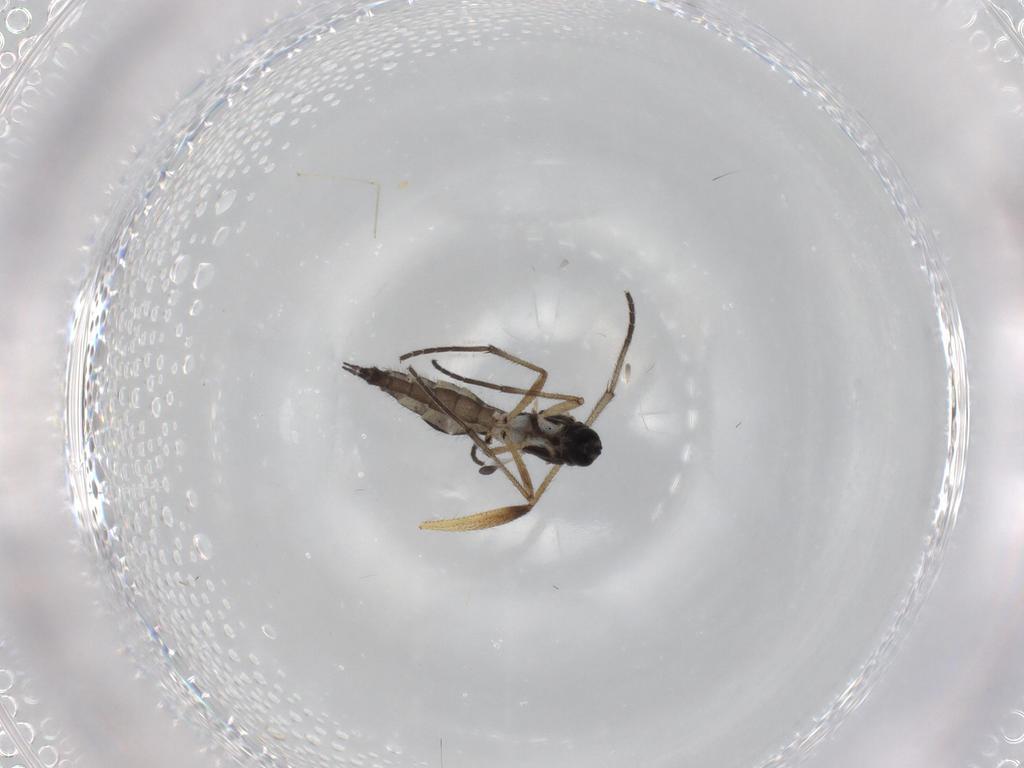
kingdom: Animalia
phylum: Arthropoda
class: Insecta
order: Diptera
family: Sciaridae
